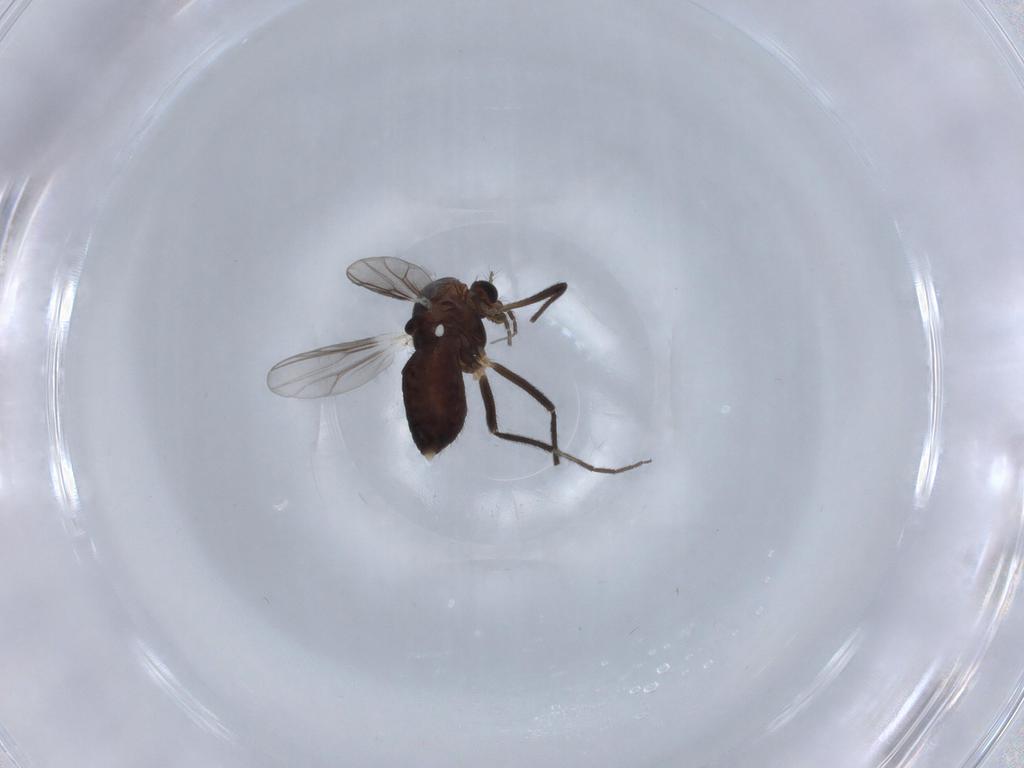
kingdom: Animalia
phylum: Arthropoda
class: Insecta
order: Diptera
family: Chironomidae
